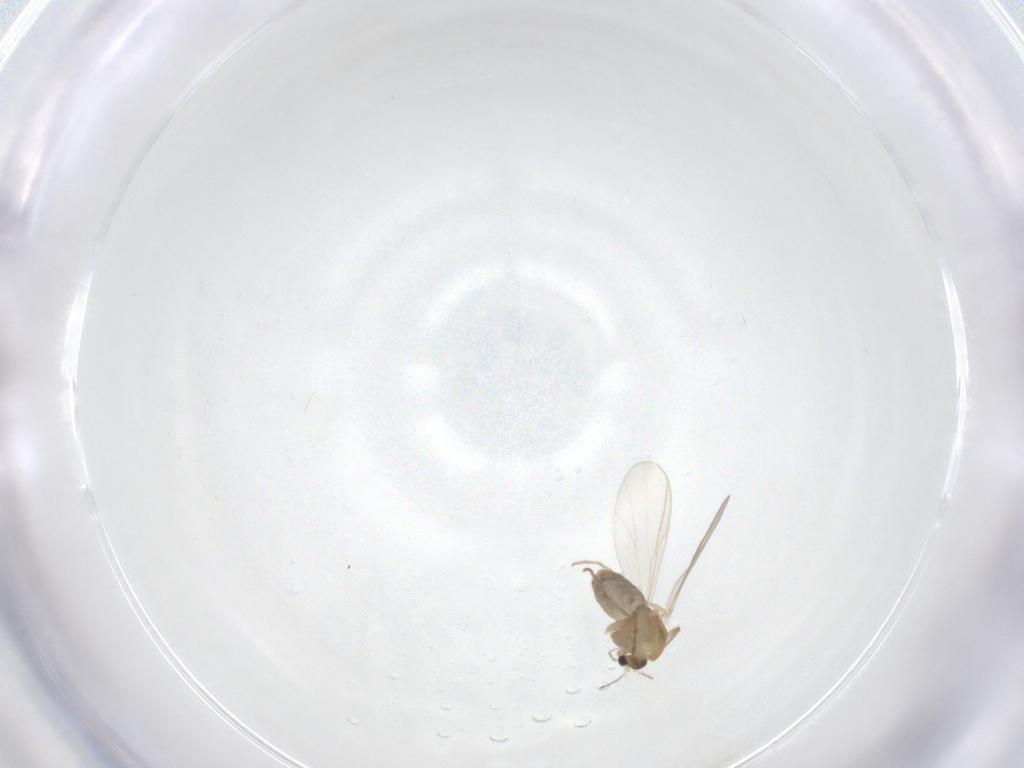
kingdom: Animalia
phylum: Arthropoda
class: Insecta
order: Diptera
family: Chironomidae
